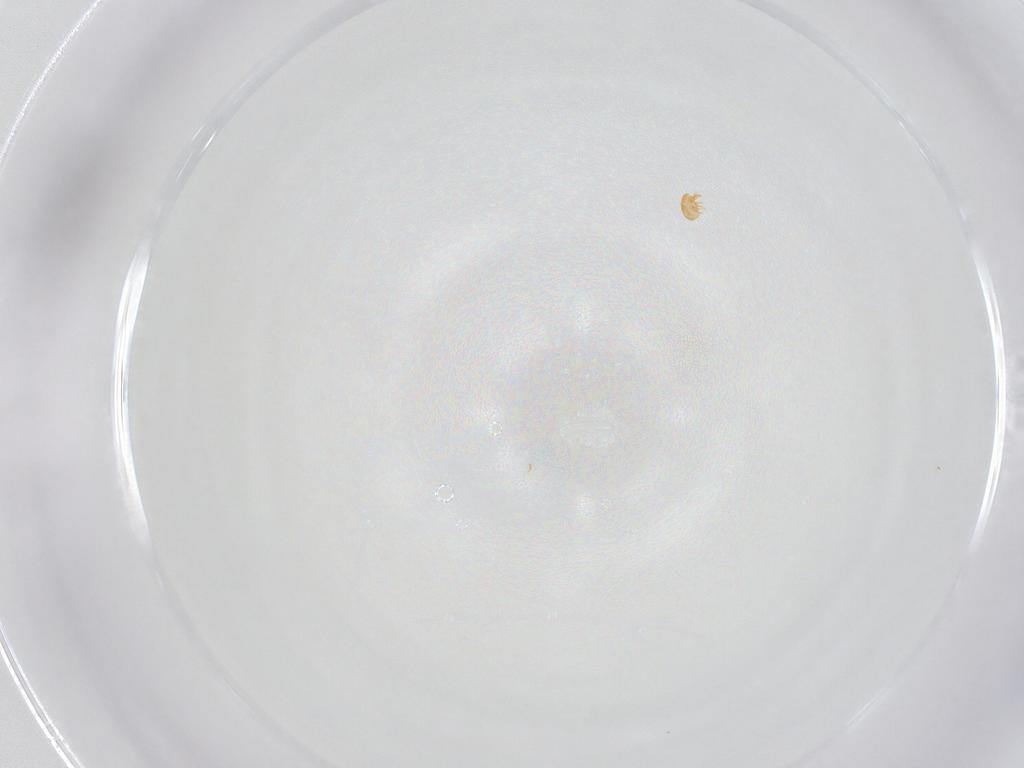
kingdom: Animalia
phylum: Arthropoda
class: Arachnida
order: Sarcoptiformes
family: Brachychthoniidae
